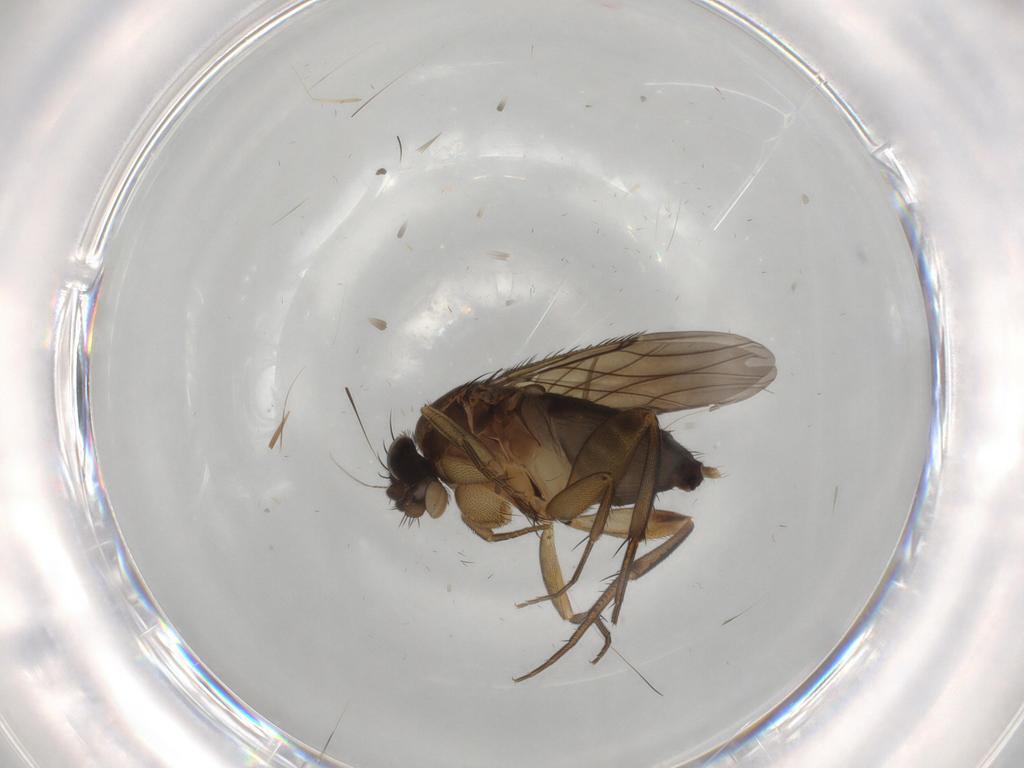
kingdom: Animalia
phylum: Arthropoda
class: Insecta
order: Diptera
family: Phoridae
